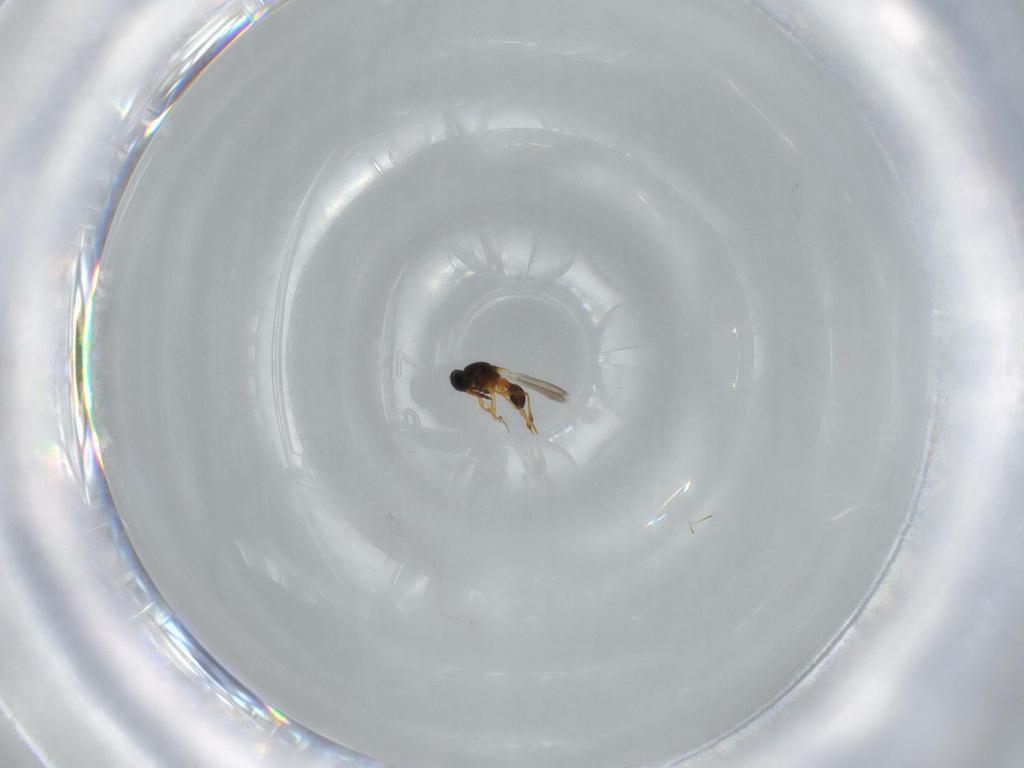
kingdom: Animalia
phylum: Arthropoda
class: Insecta
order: Hymenoptera
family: Platygastridae
